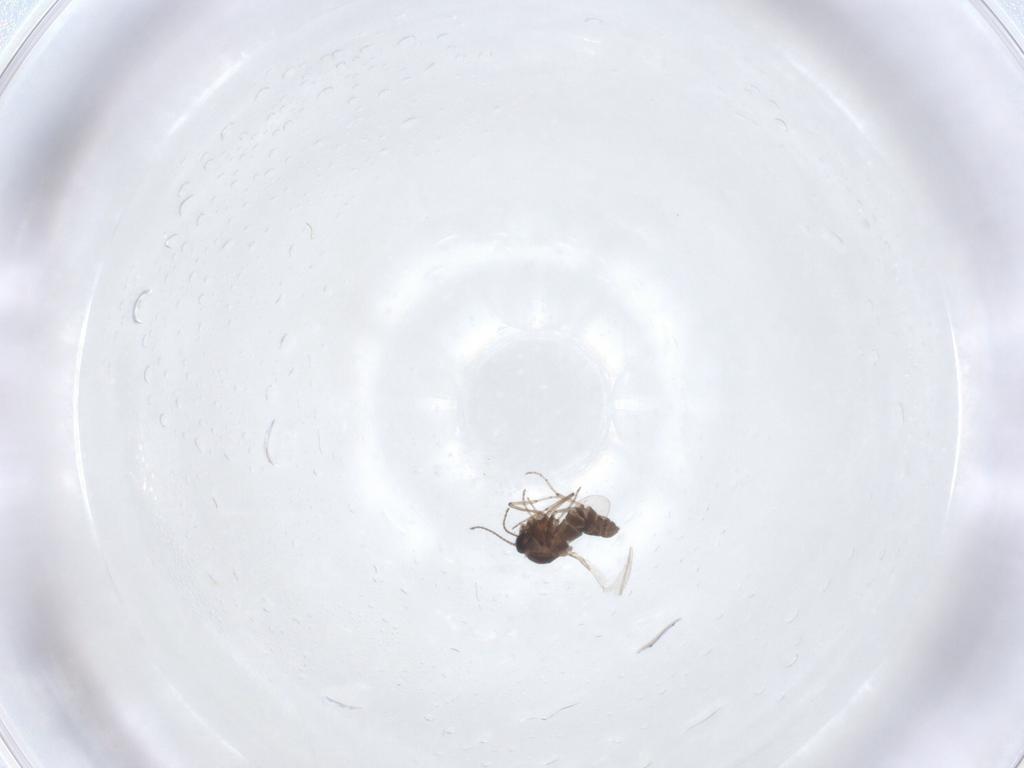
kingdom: Animalia
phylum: Arthropoda
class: Insecta
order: Diptera
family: Ceratopogonidae
